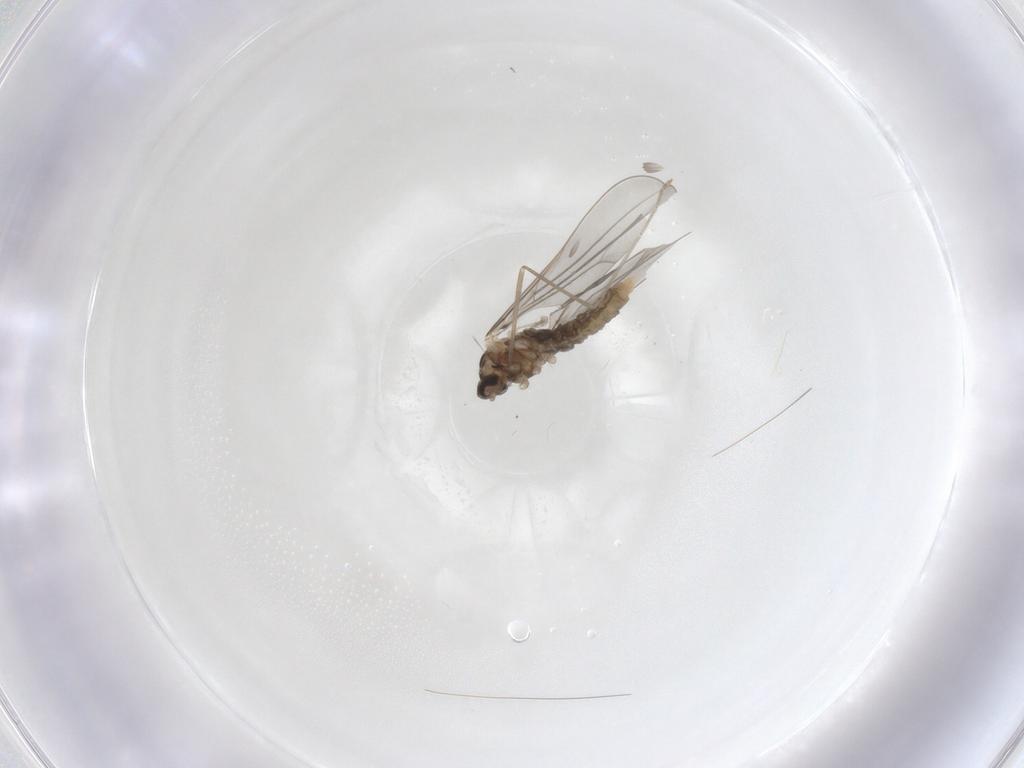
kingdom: Animalia
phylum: Arthropoda
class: Insecta
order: Diptera
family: Cecidomyiidae
